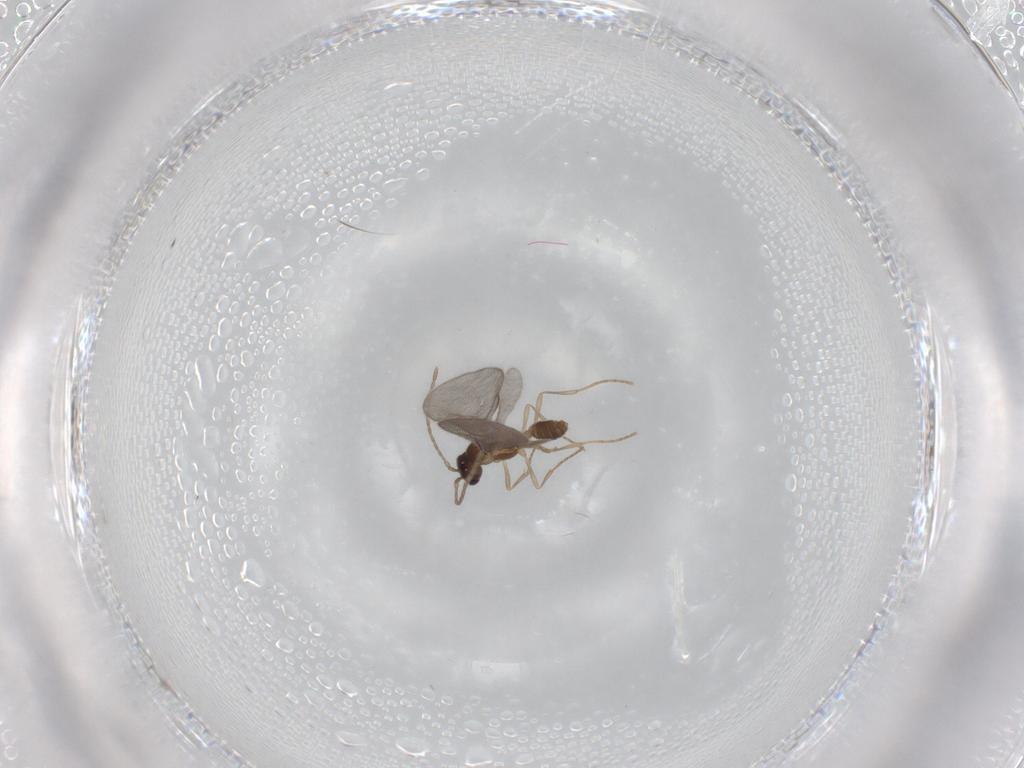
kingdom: Animalia
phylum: Arthropoda
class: Insecta
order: Hymenoptera
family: Formicidae
